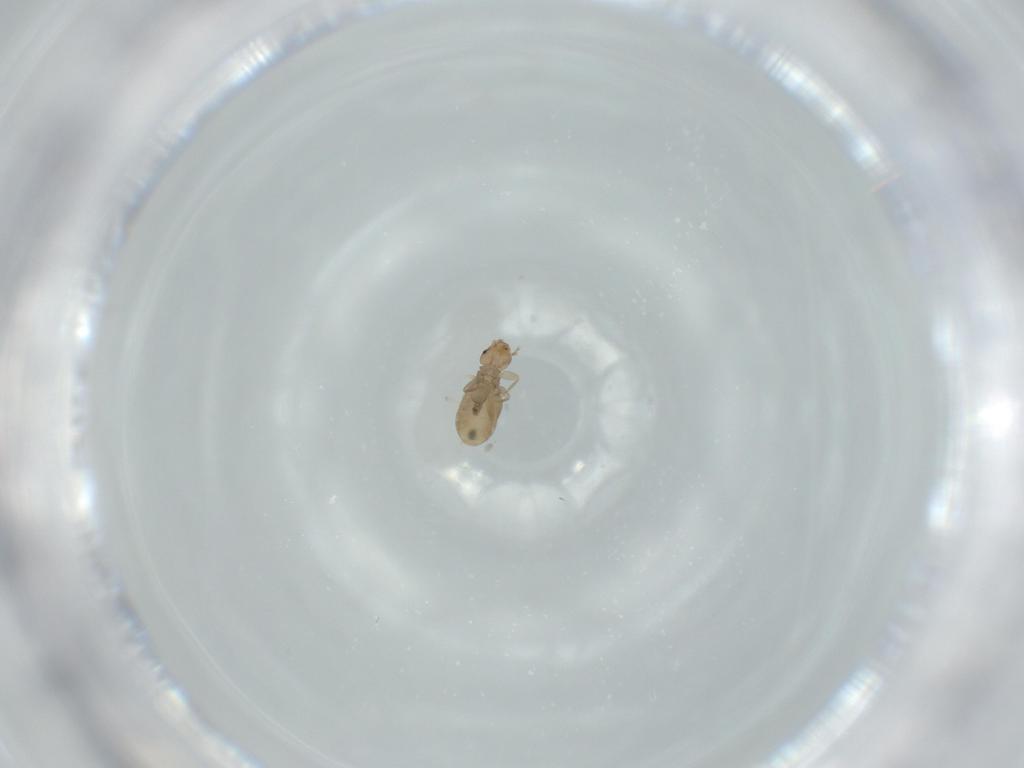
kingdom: Animalia
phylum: Arthropoda
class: Insecta
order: Psocodea
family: Liposcelididae
